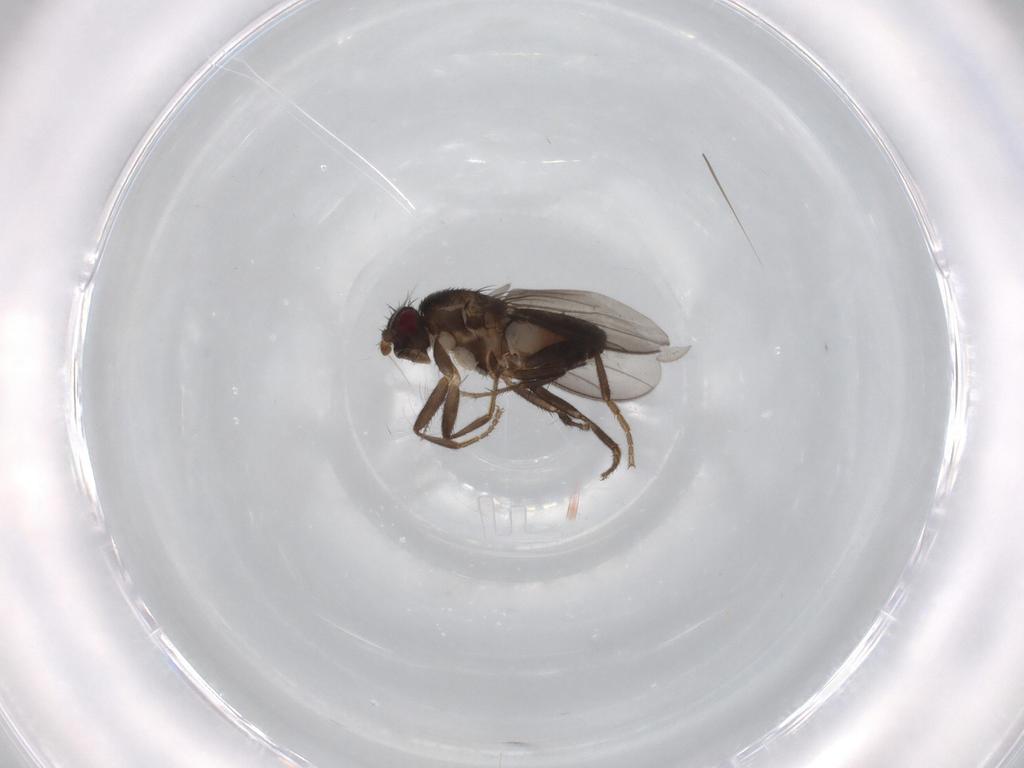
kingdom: Animalia
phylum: Arthropoda
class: Insecta
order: Diptera
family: Sphaeroceridae
